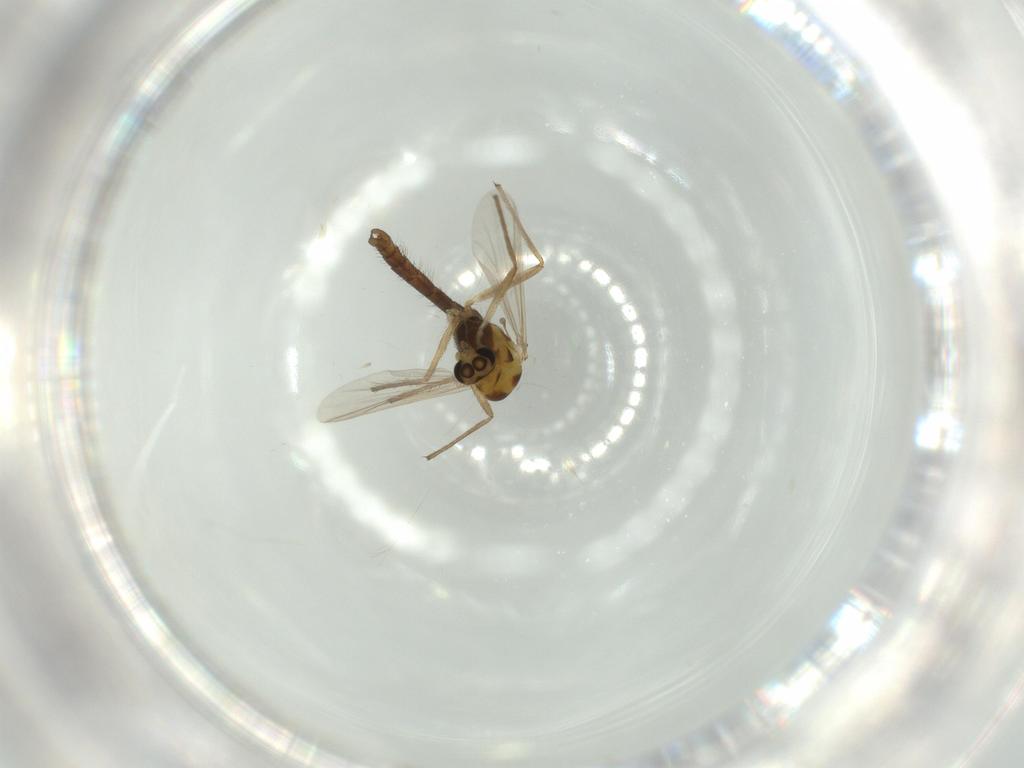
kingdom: Animalia
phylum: Arthropoda
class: Insecta
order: Diptera
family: Chironomidae
